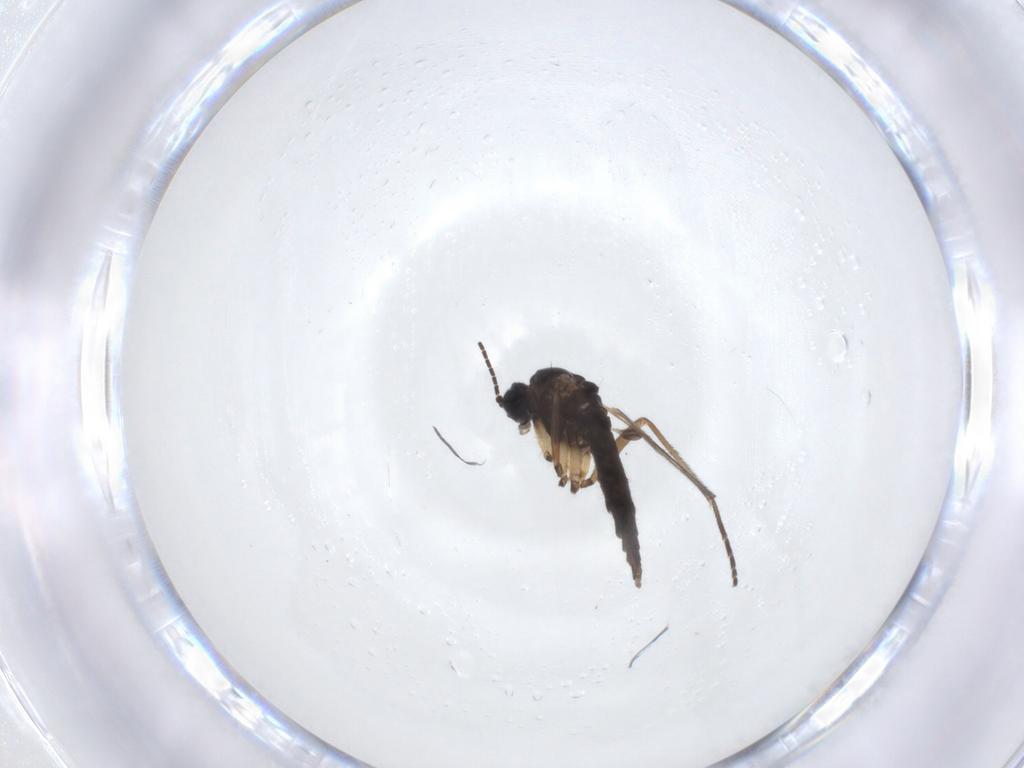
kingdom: Animalia
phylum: Arthropoda
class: Insecta
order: Diptera
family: Sciaridae
